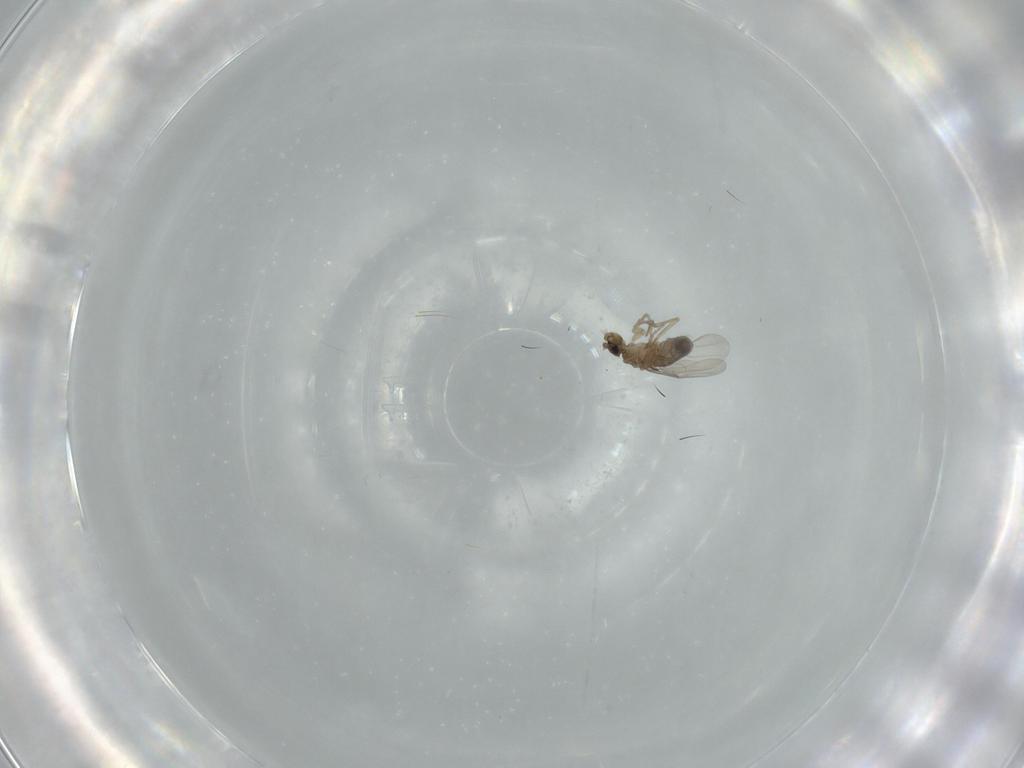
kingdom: Animalia
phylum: Arthropoda
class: Insecta
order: Diptera
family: Phoridae
